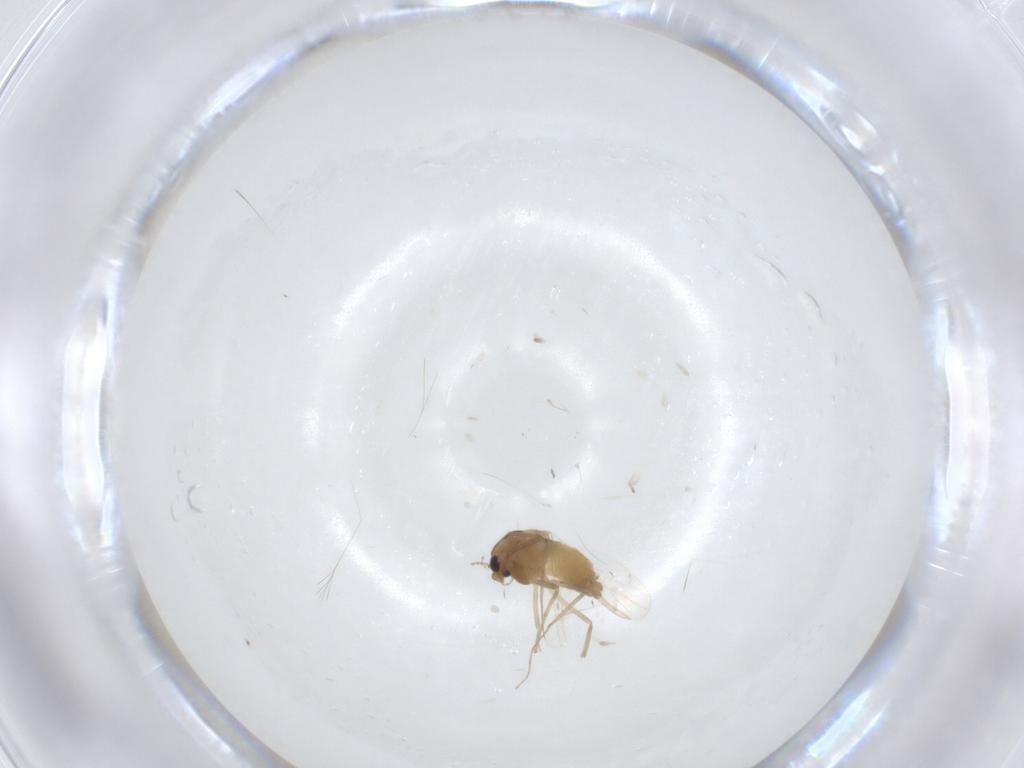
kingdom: Animalia
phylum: Arthropoda
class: Insecta
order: Diptera
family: Ceratopogonidae
